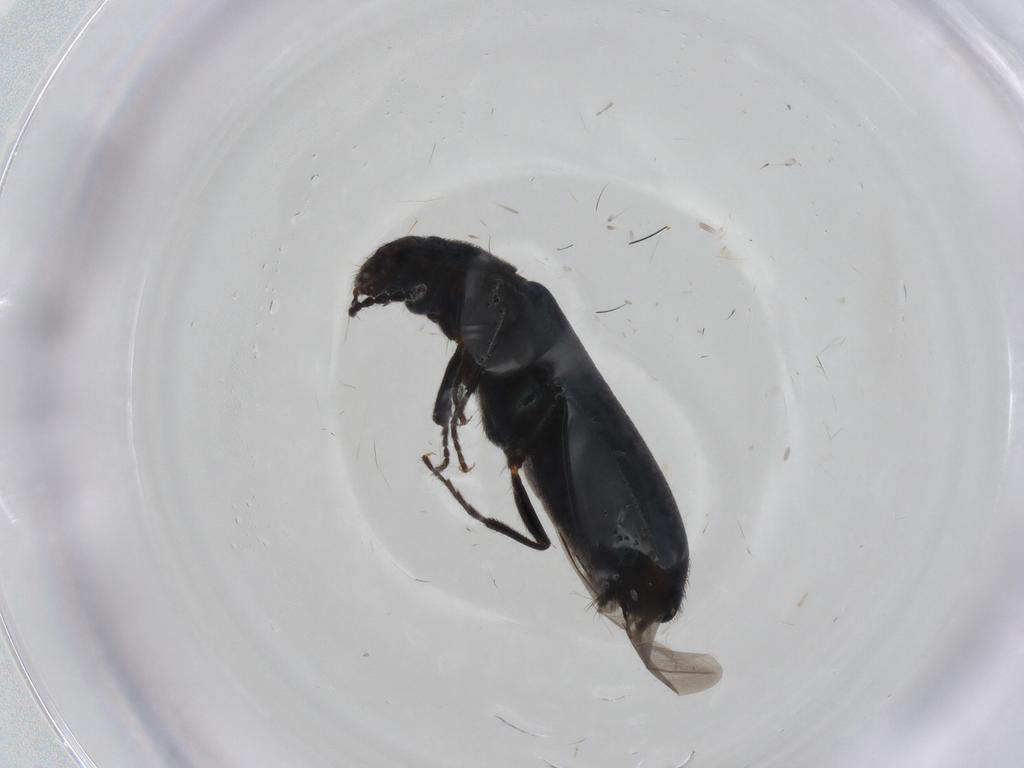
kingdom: Animalia
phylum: Arthropoda
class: Insecta
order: Coleoptera
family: Melyridae
